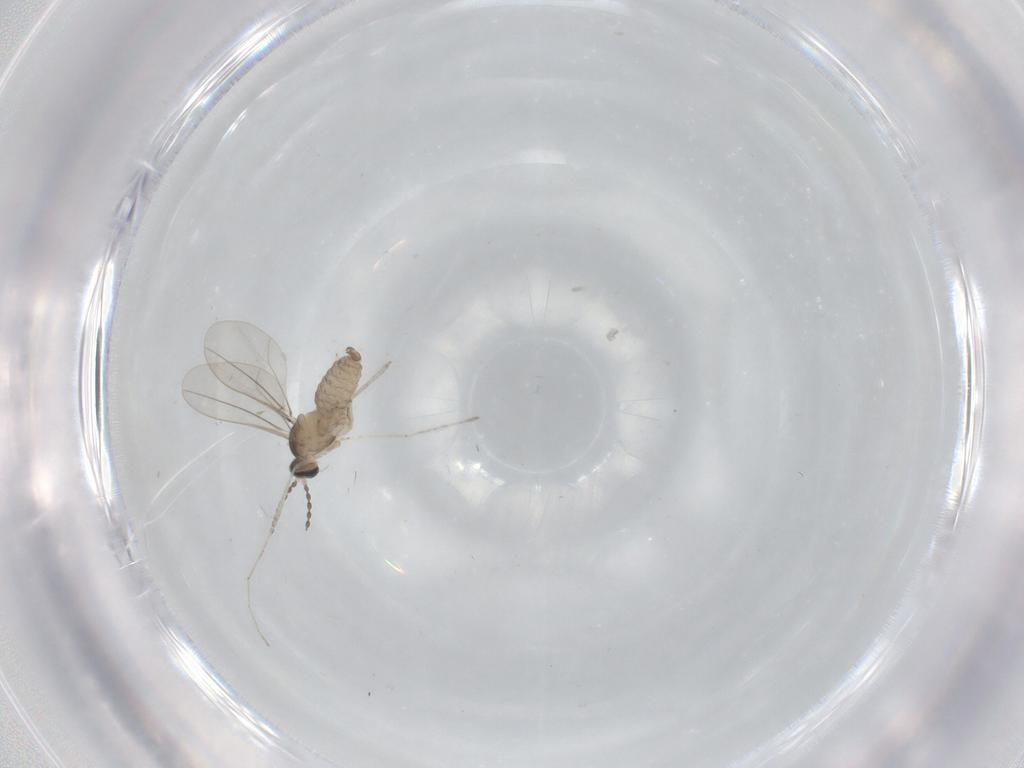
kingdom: Animalia
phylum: Arthropoda
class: Insecta
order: Diptera
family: Cecidomyiidae
